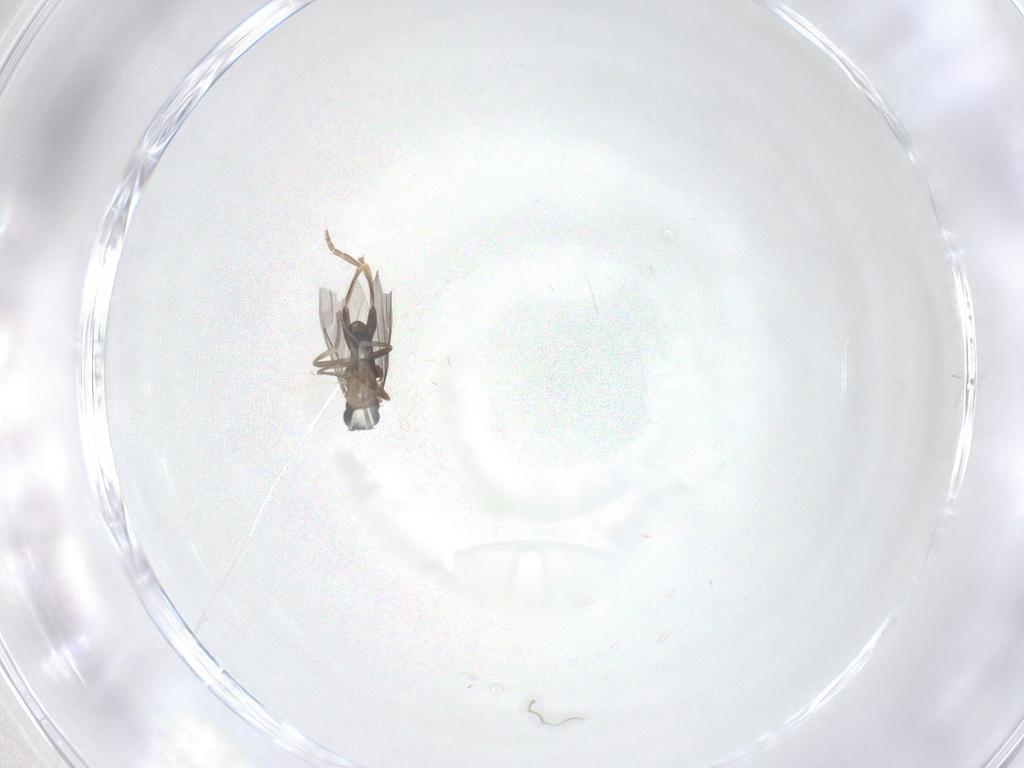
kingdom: Animalia
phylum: Arthropoda
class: Insecta
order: Diptera
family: Chironomidae
